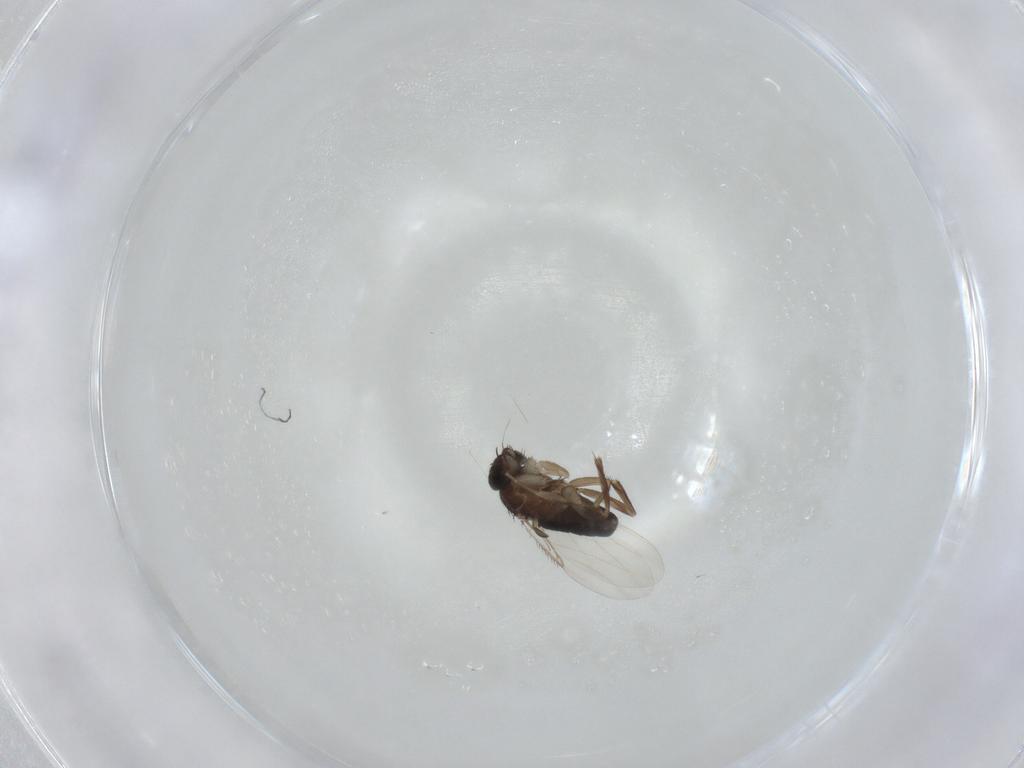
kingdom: Animalia
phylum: Arthropoda
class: Insecta
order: Diptera
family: Phoridae
